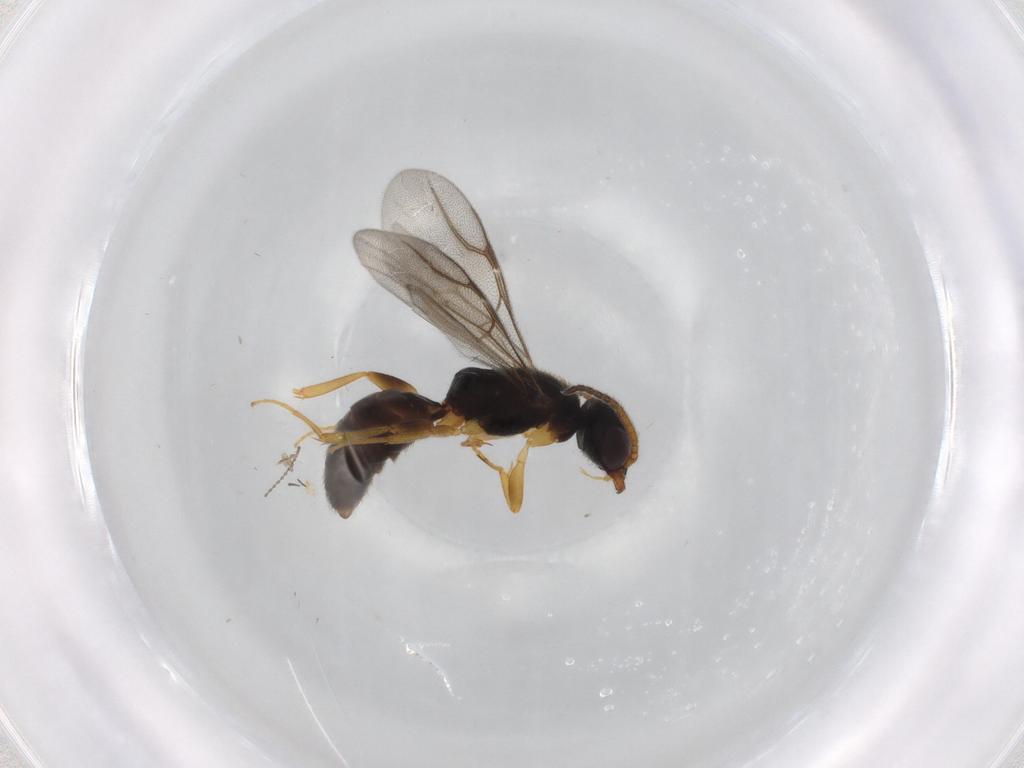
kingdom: Animalia
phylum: Arthropoda
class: Insecta
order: Hymenoptera
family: Bethylidae
